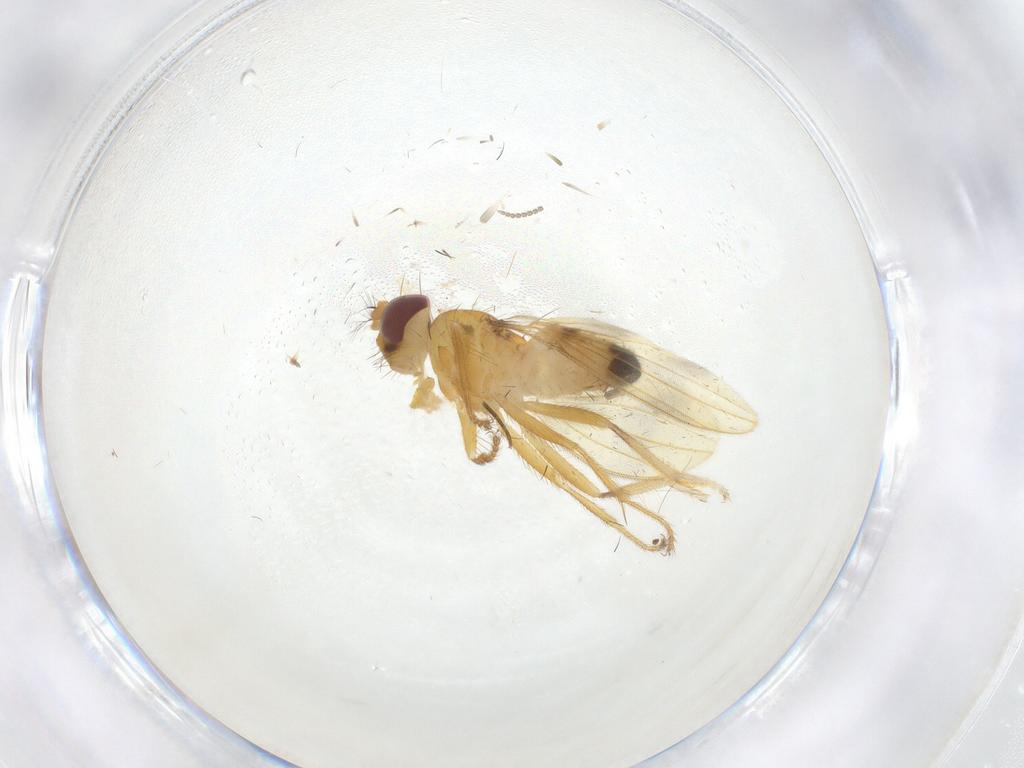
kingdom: Animalia
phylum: Arthropoda
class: Insecta
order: Diptera
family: Periscelididae
